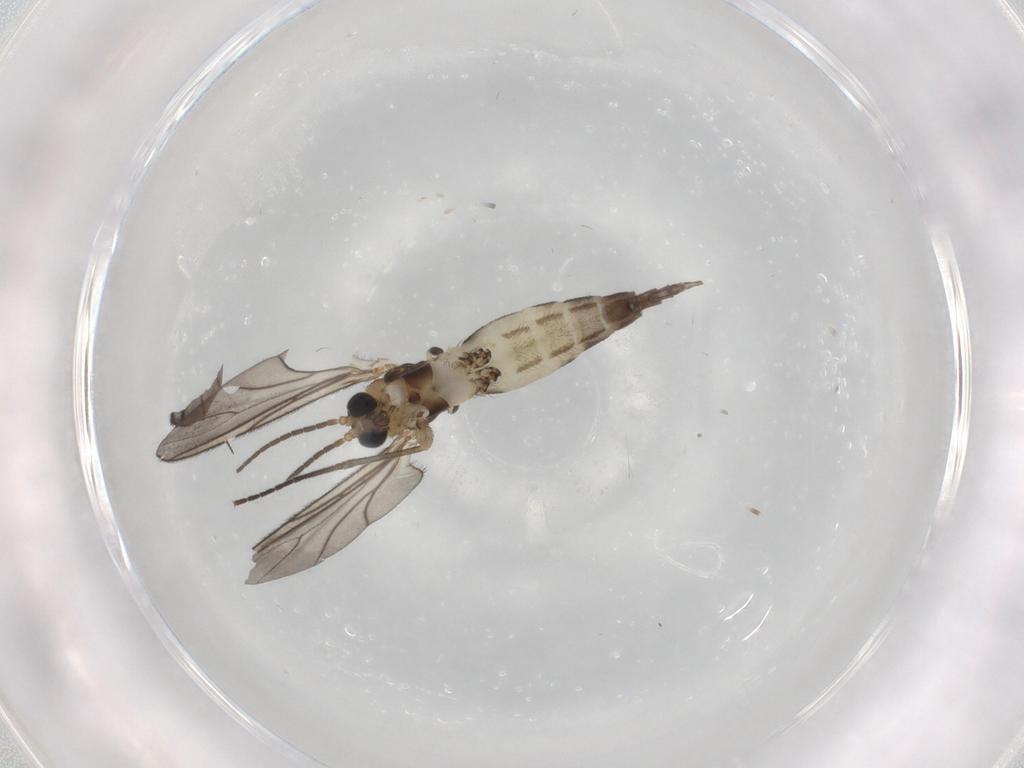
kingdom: Animalia
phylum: Arthropoda
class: Insecta
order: Diptera
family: Sciaridae
